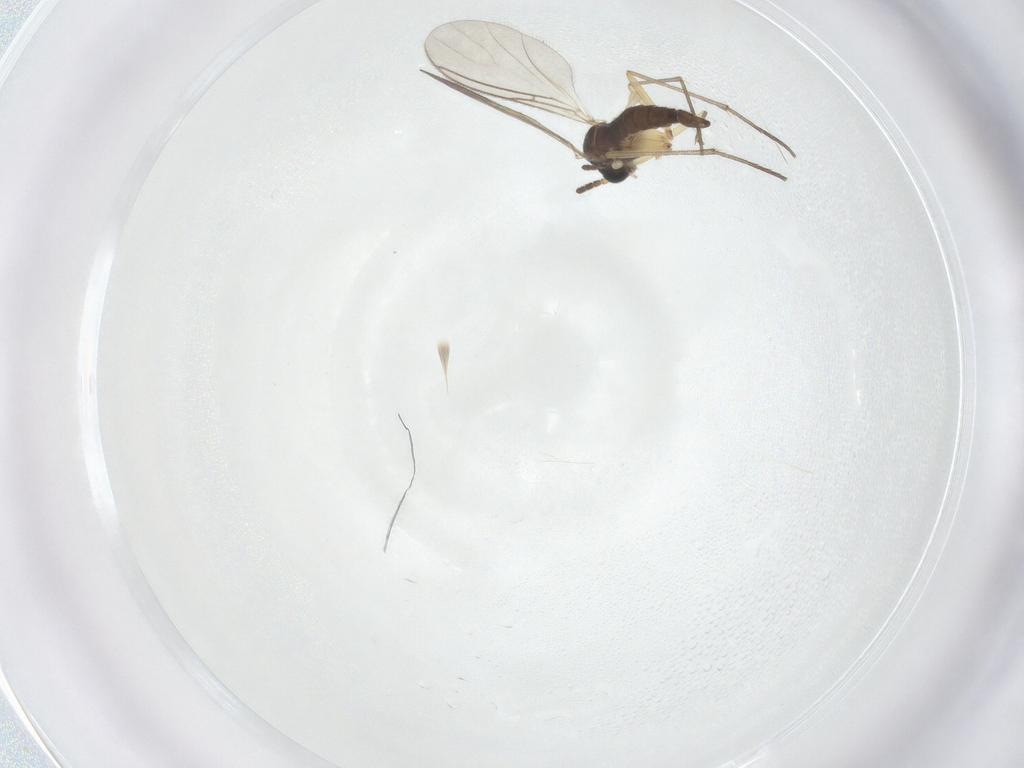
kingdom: Animalia
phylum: Arthropoda
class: Insecta
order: Diptera
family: Sciaridae
